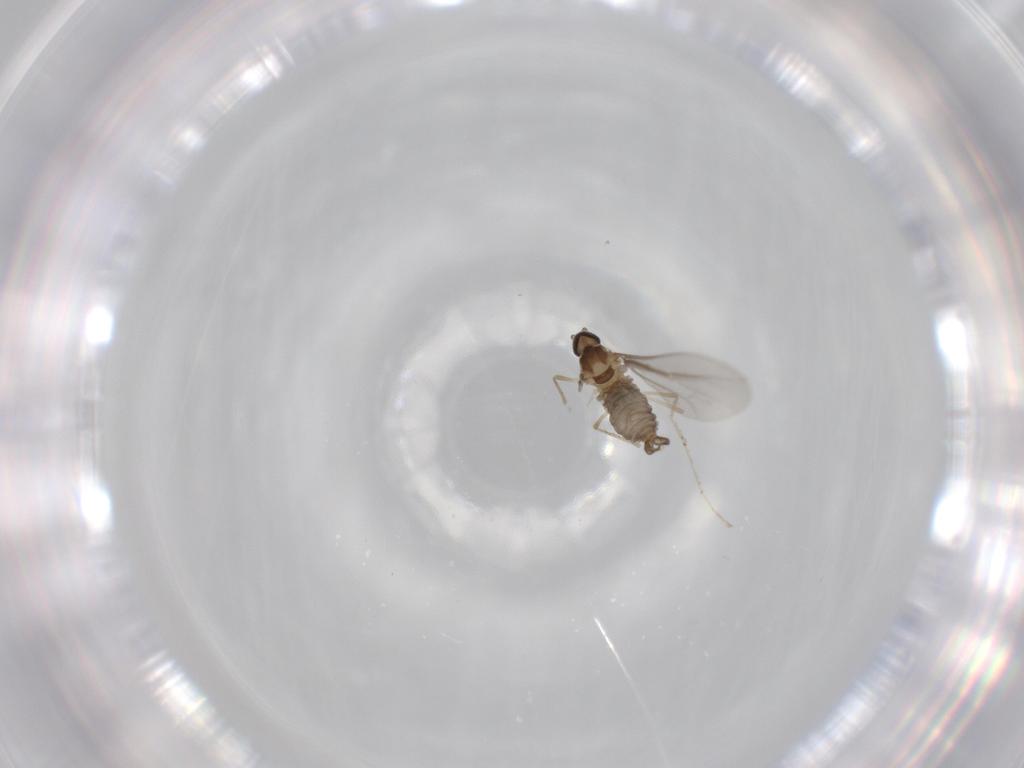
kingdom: Animalia
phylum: Arthropoda
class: Insecta
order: Diptera
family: Cecidomyiidae
